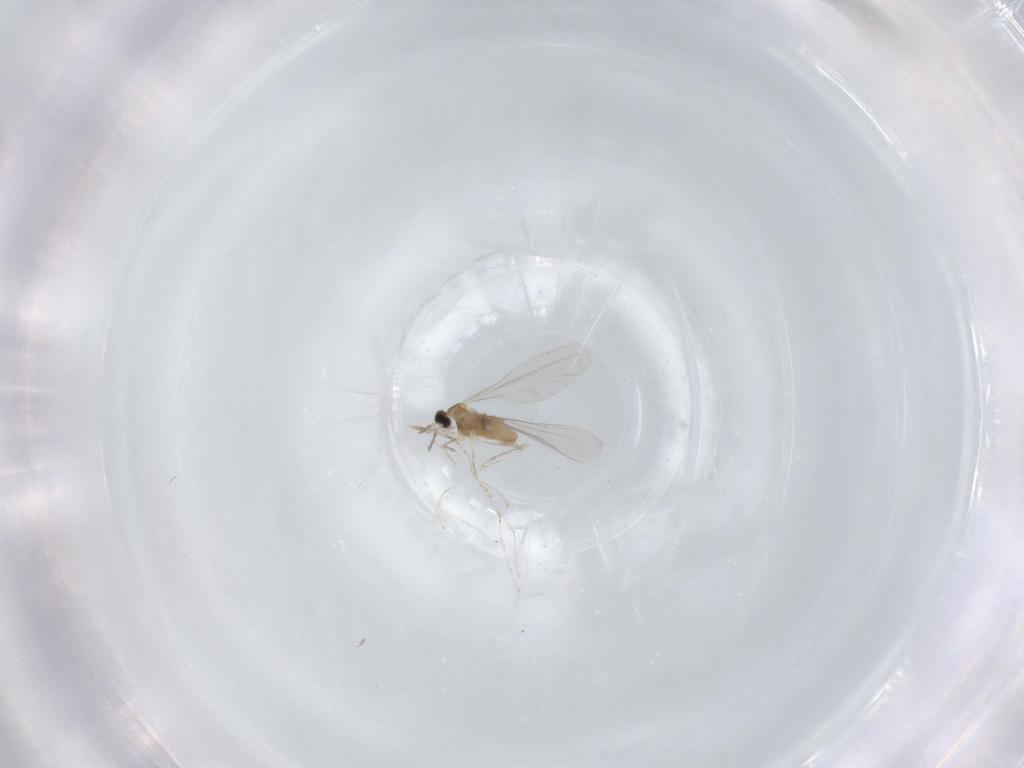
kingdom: Animalia
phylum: Arthropoda
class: Insecta
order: Diptera
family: Cecidomyiidae
